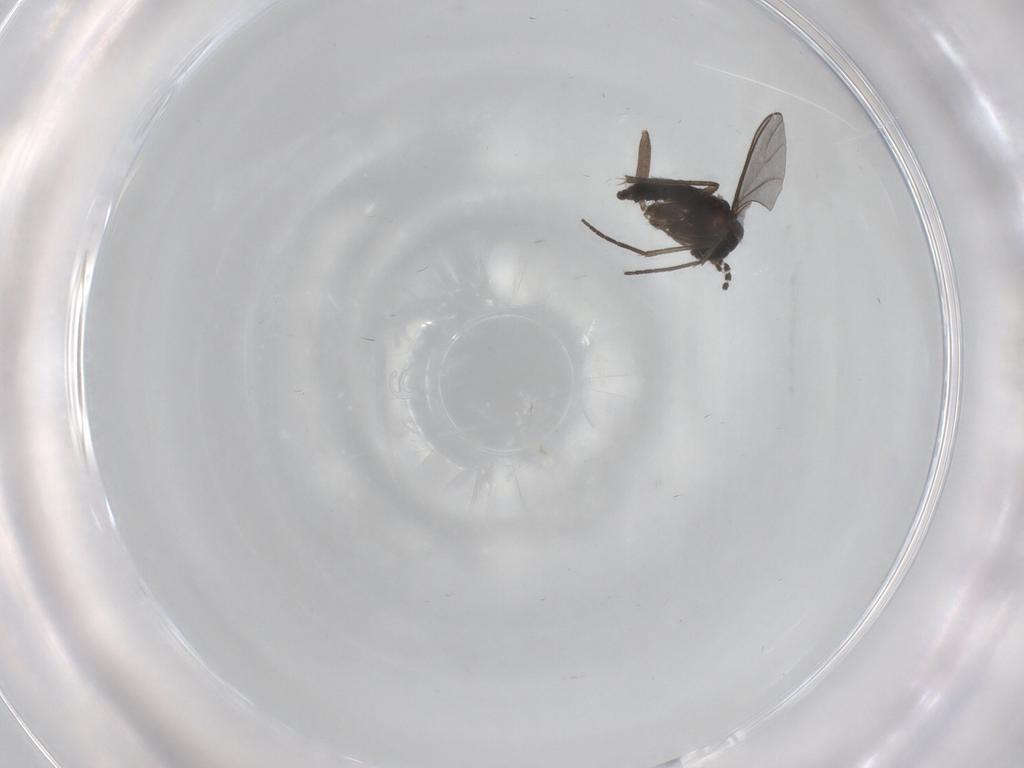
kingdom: Animalia
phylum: Arthropoda
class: Insecta
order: Diptera
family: Sciaridae
